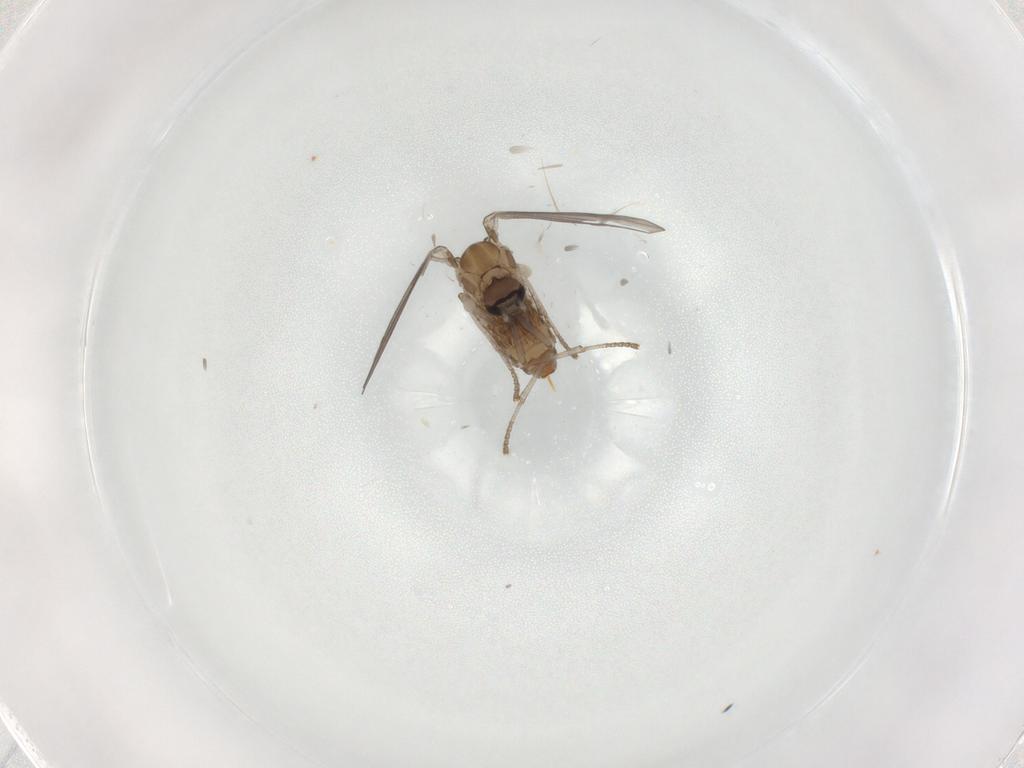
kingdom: Animalia
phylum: Arthropoda
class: Insecta
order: Diptera
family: Psychodidae
